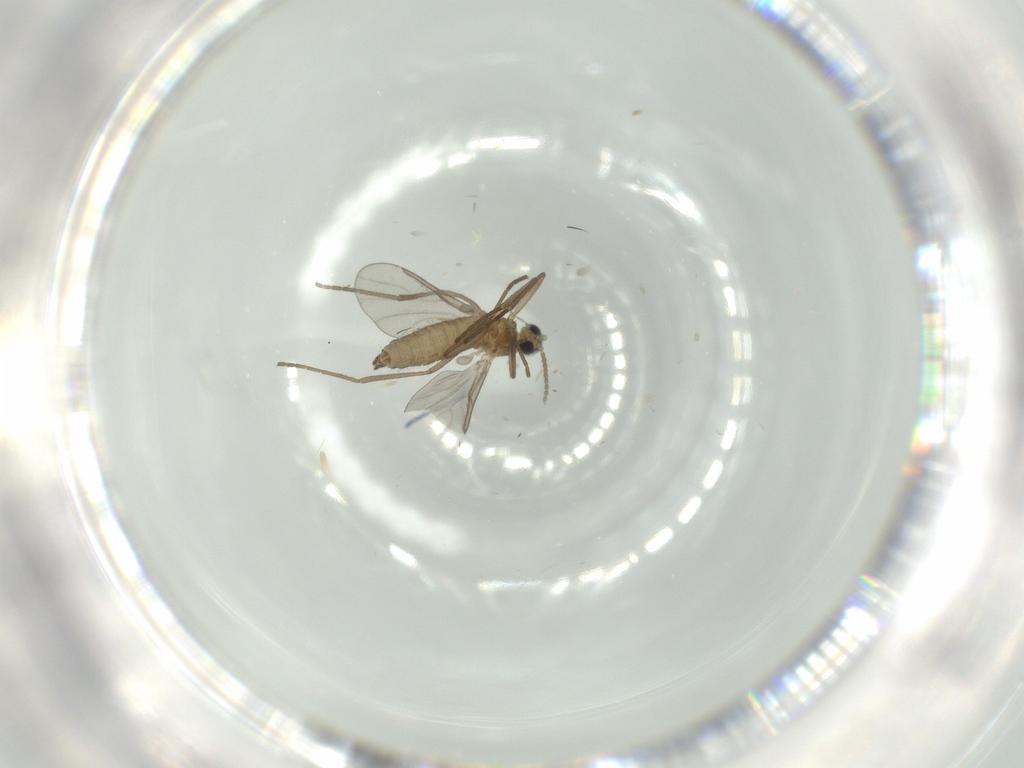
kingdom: Animalia
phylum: Arthropoda
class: Insecta
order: Diptera
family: Cecidomyiidae
